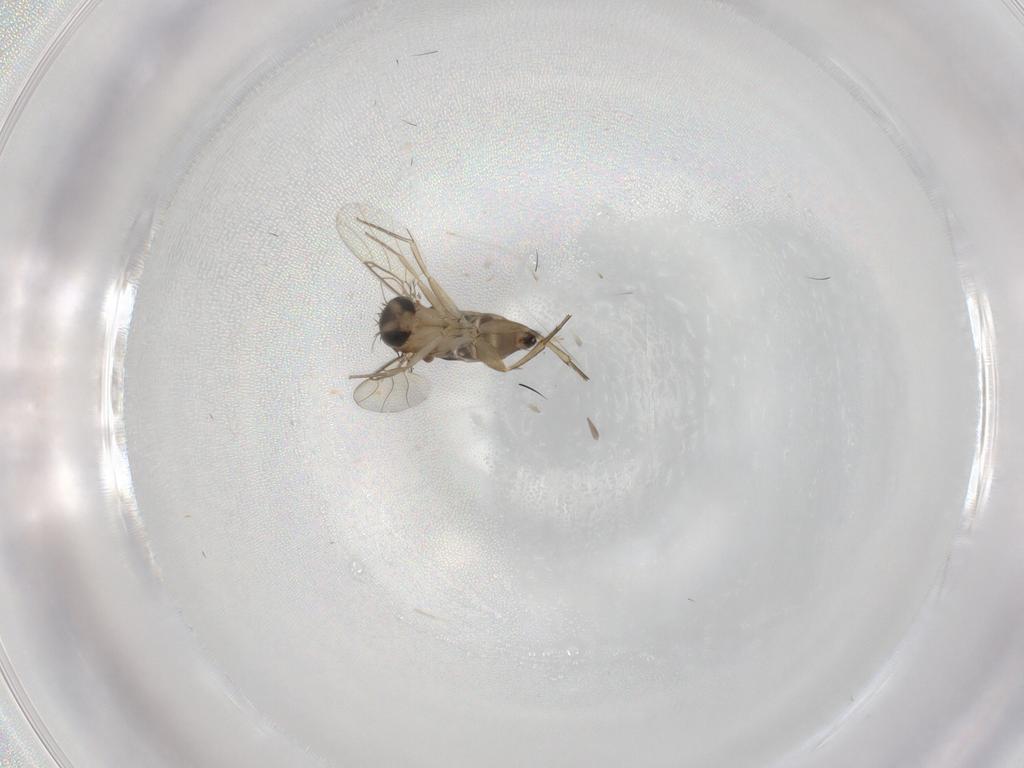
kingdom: Animalia
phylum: Arthropoda
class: Insecta
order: Diptera
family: Phoridae
